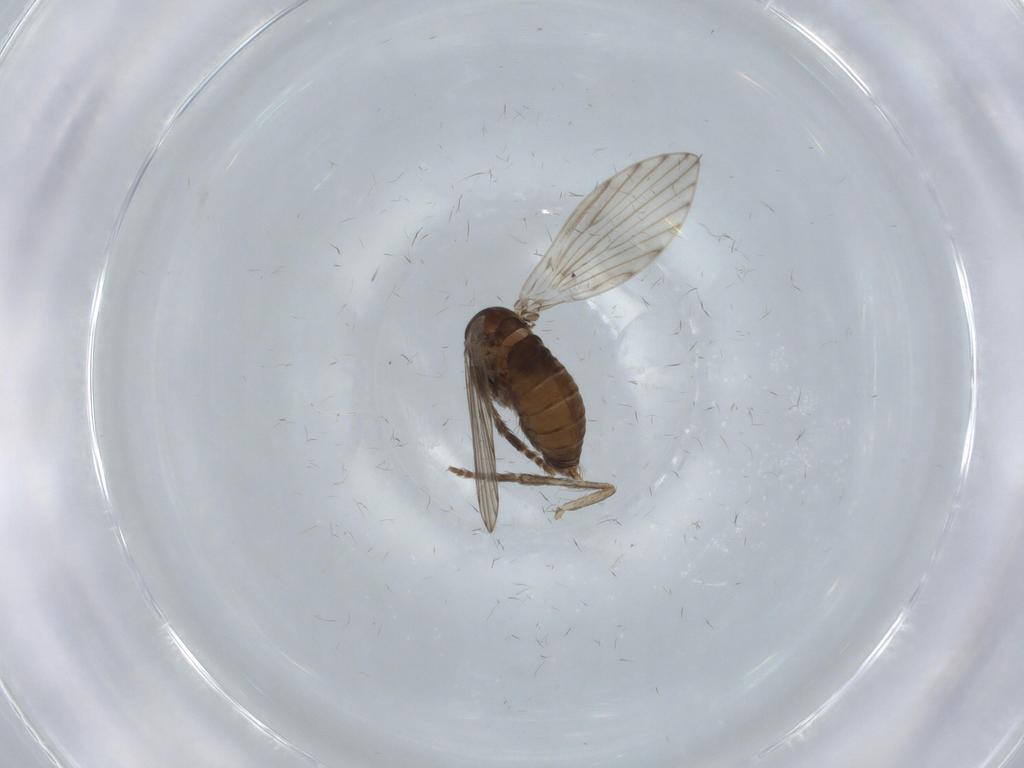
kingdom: Animalia
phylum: Arthropoda
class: Insecta
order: Diptera
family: Psychodidae
